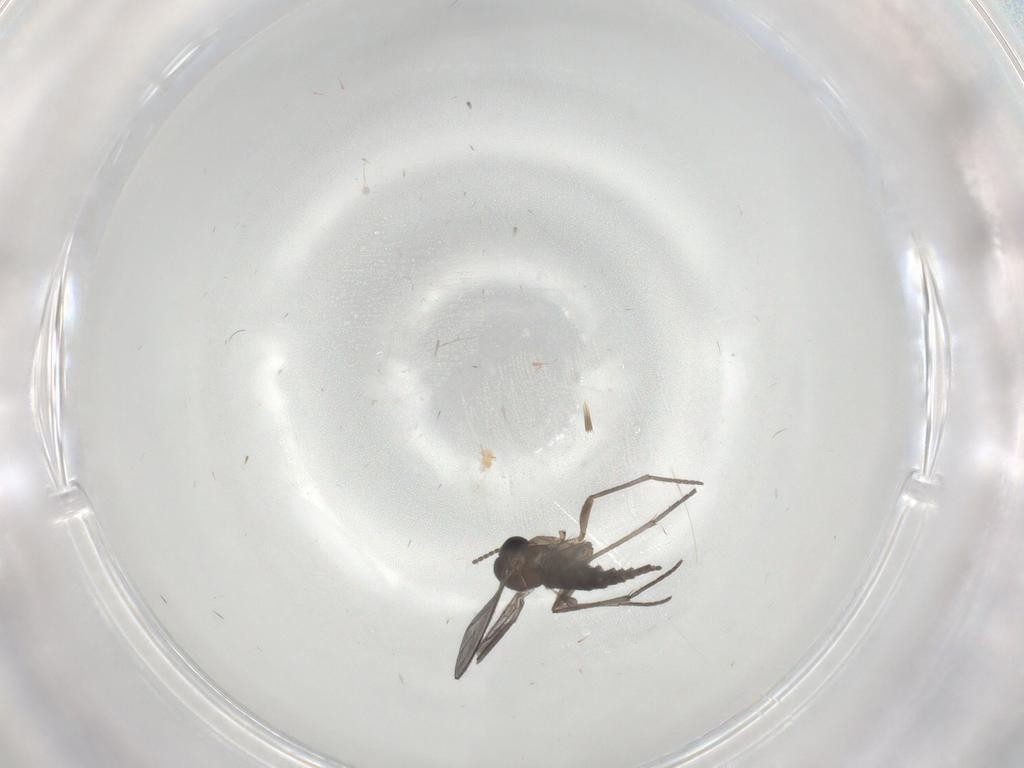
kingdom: Animalia
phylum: Arthropoda
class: Insecta
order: Diptera
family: Sciaridae
